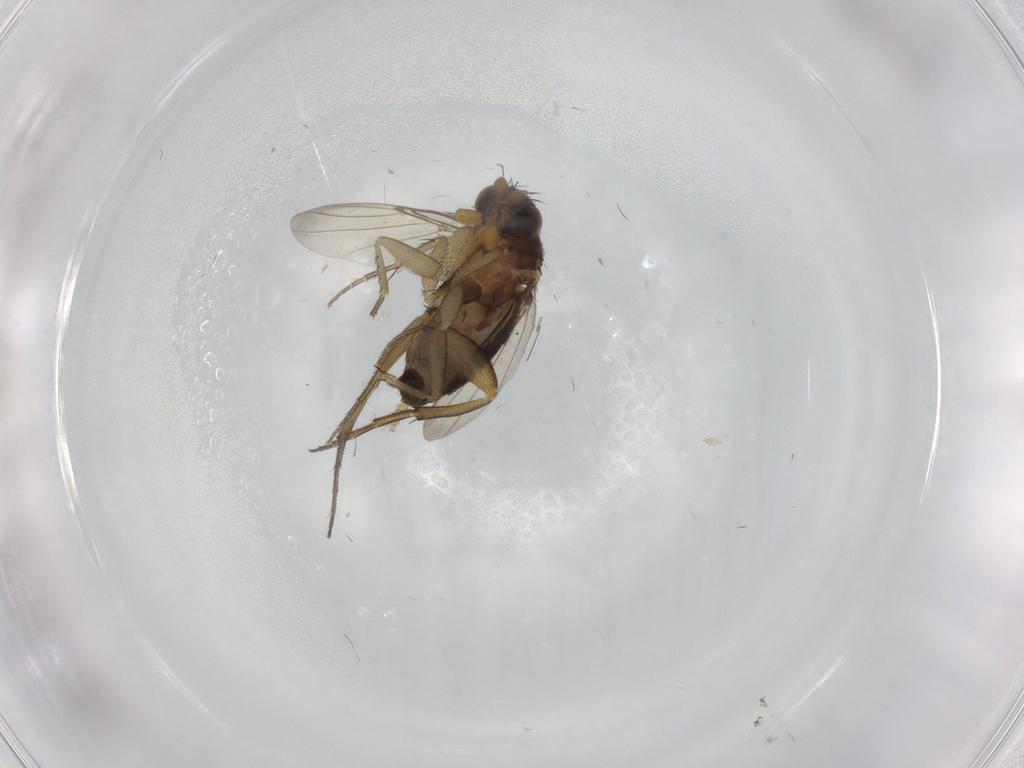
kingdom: Animalia
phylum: Arthropoda
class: Insecta
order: Diptera
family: Phoridae
